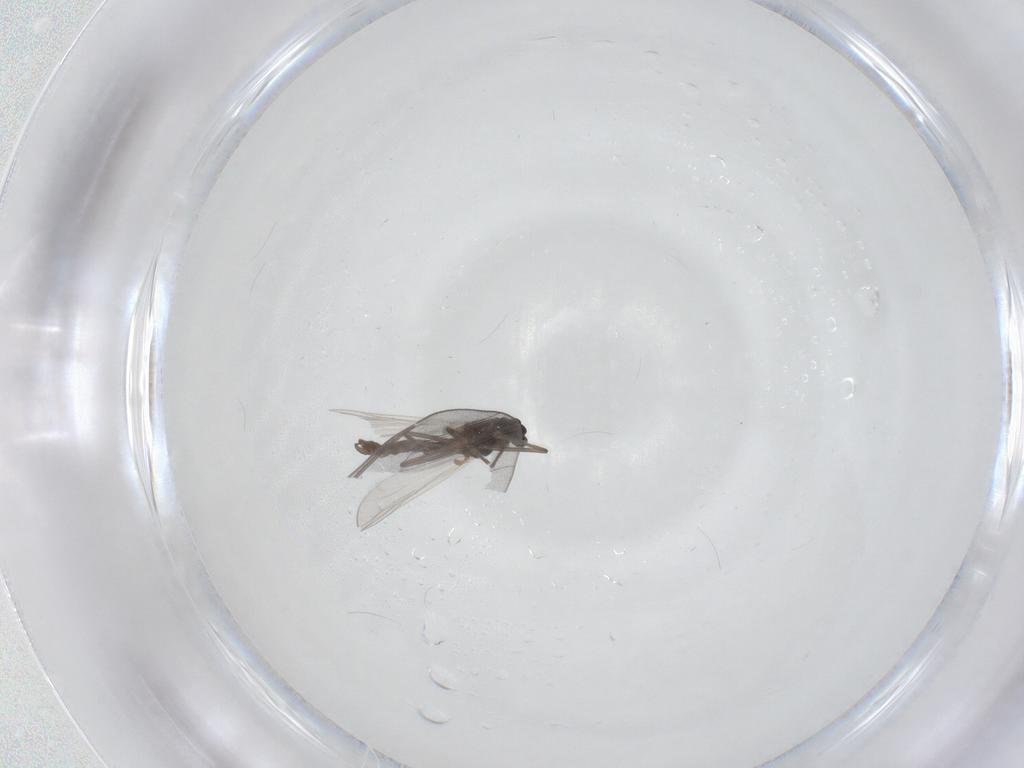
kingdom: Animalia
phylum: Arthropoda
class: Insecta
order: Diptera
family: Chironomidae
